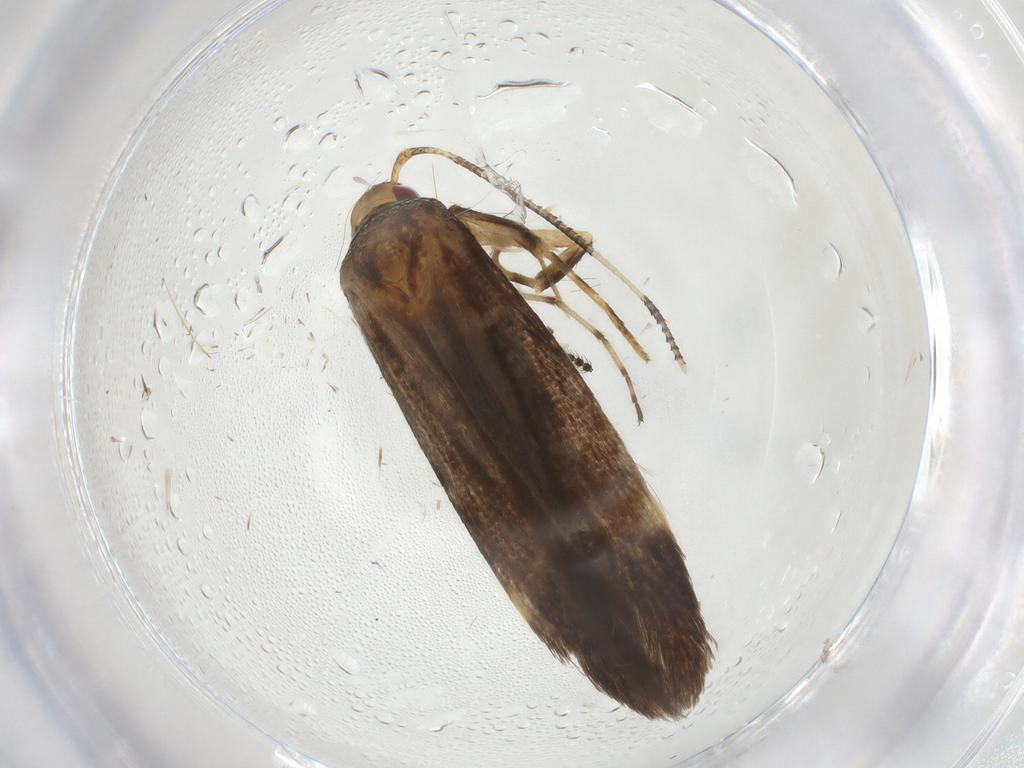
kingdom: Animalia
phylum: Arthropoda
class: Insecta
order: Lepidoptera
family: Cosmopterigidae
